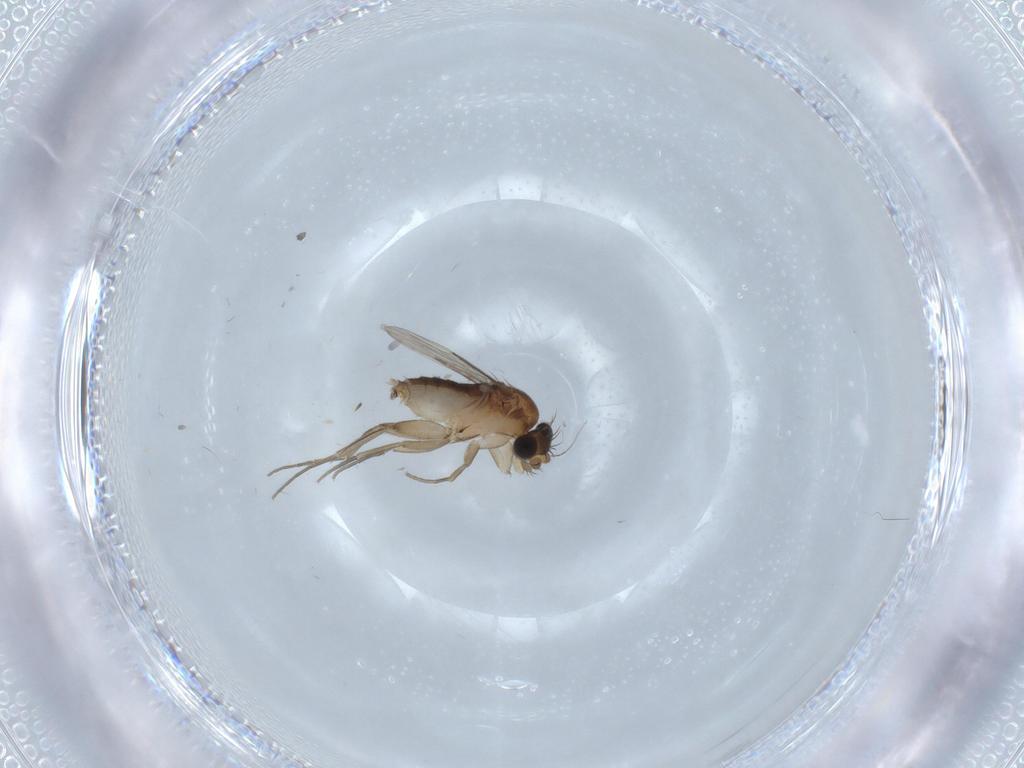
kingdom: Animalia
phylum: Arthropoda
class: Insecta
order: Diptera
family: Phoridae
